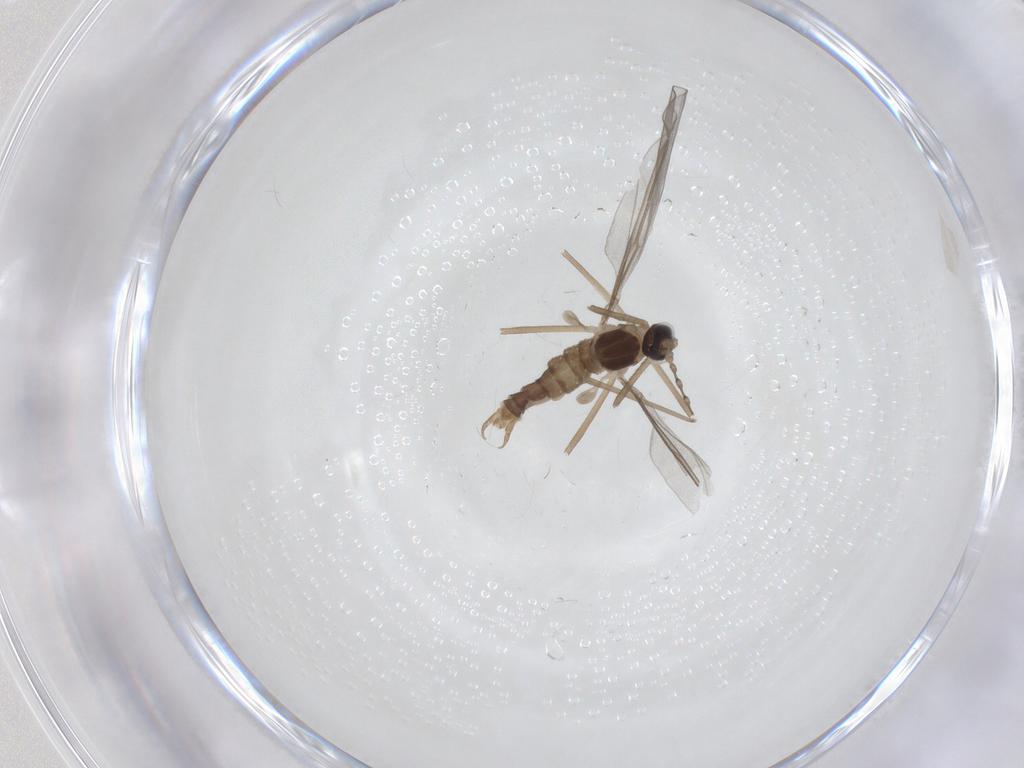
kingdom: Animalia
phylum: Arthropoda
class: Insecta
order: Diptera
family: Cecidomyiidae
